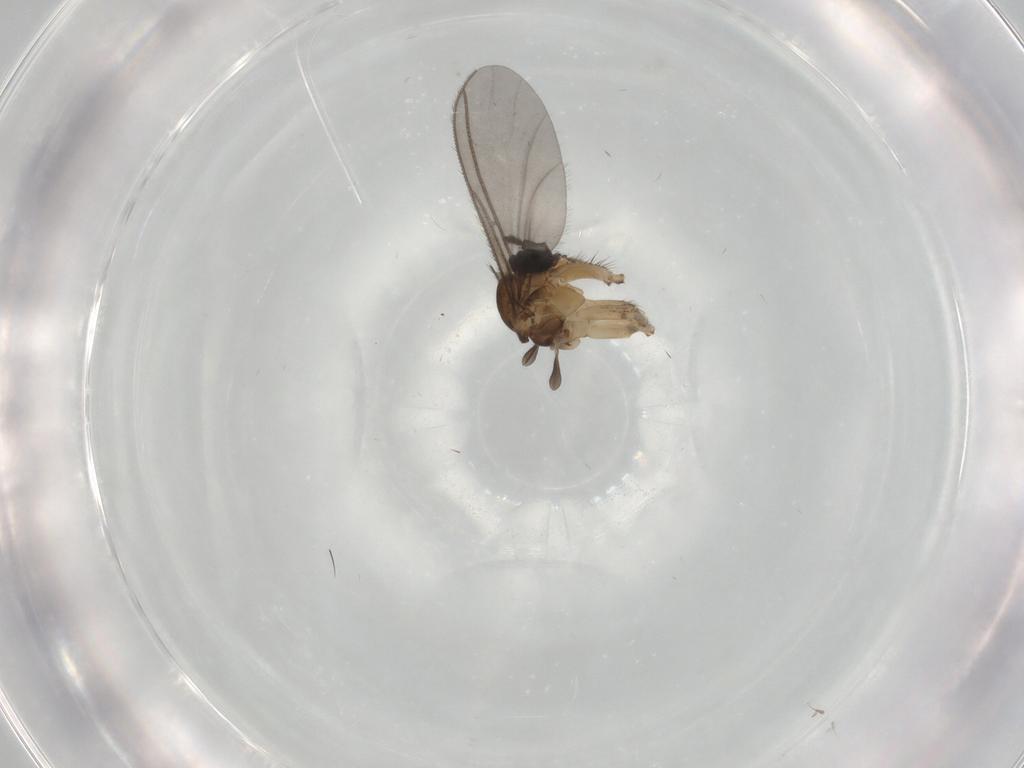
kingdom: Animalia
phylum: Arthropoda
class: Insecta
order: Diptera
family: Sciaridae
